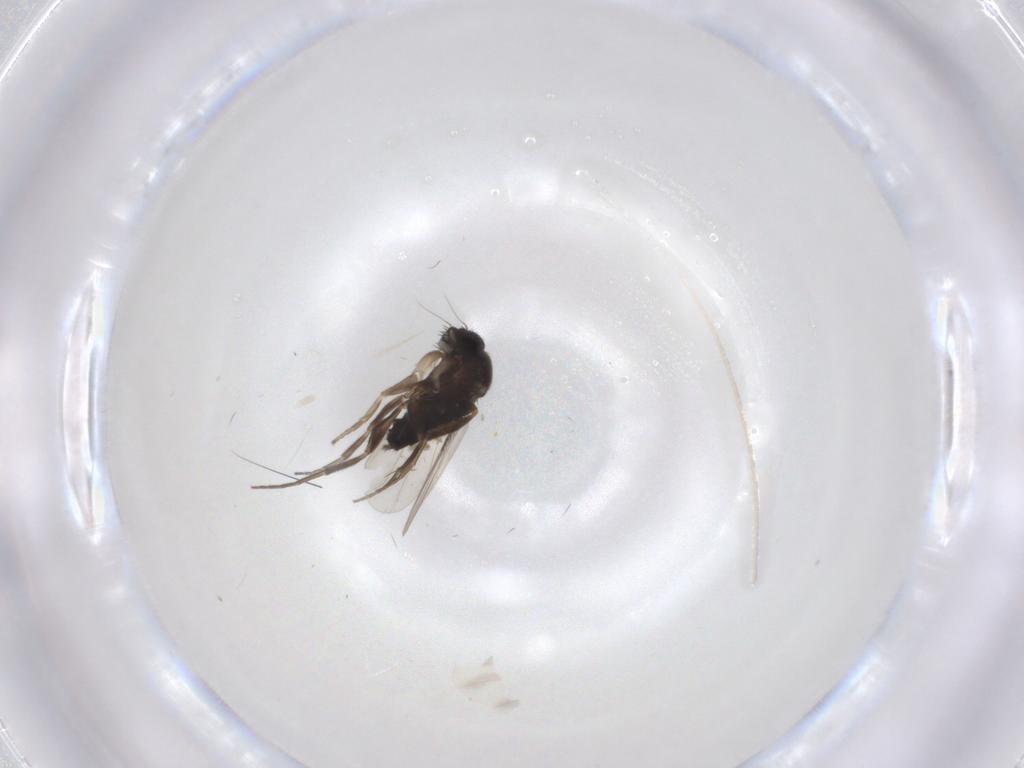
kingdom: Animalia
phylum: Arthropoda
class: Insecta
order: Diptera
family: Phoridae
